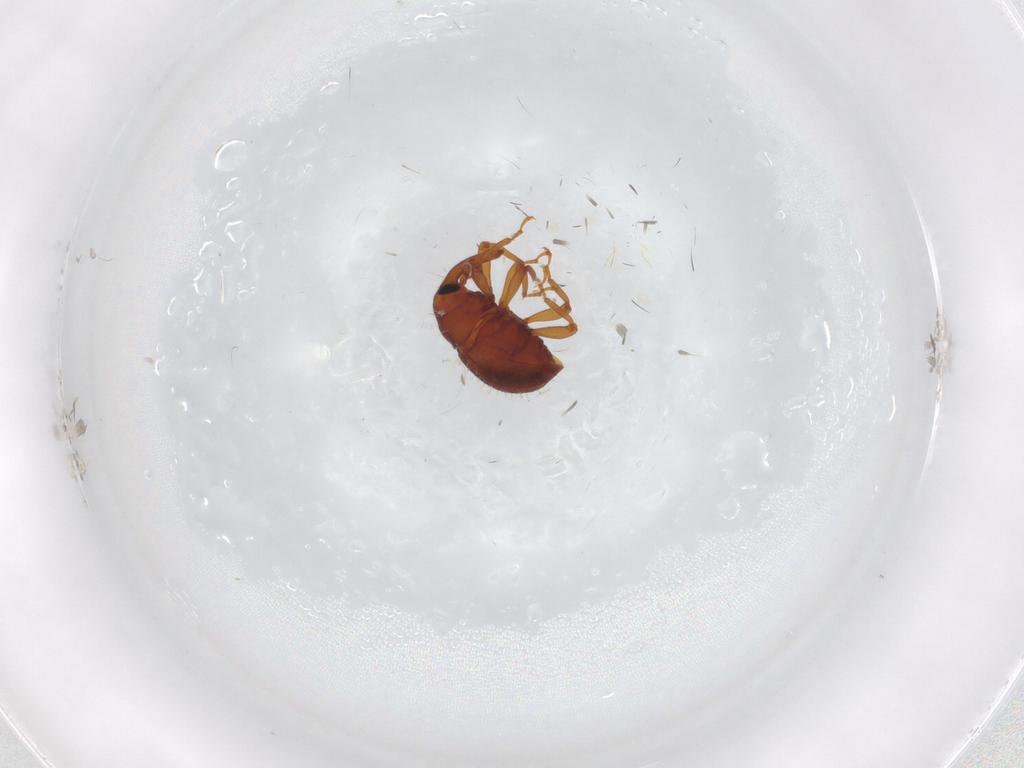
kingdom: Animalia
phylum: Arthropoda
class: Insecta
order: Coleoptera
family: Curculionidae
